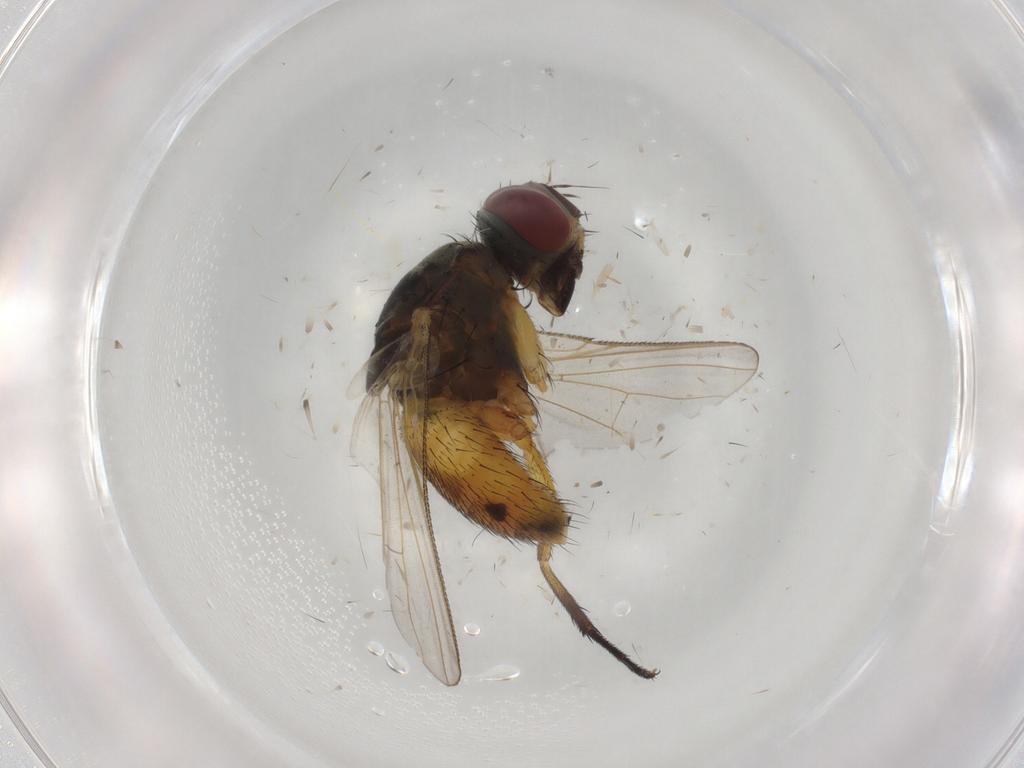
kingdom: Animalia
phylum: Arthropoda
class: Insecta
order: Diptera
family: Muscidae
